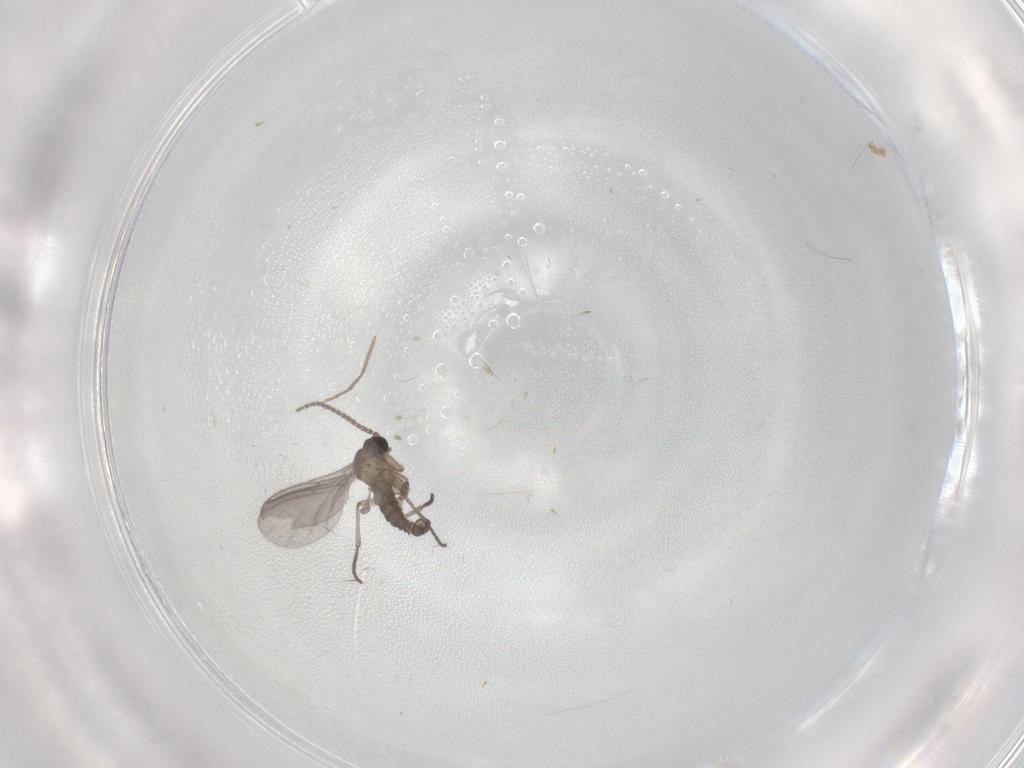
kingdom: Animalia
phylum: Arthropoda
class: Insecta
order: Diptera
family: Sciaridae
